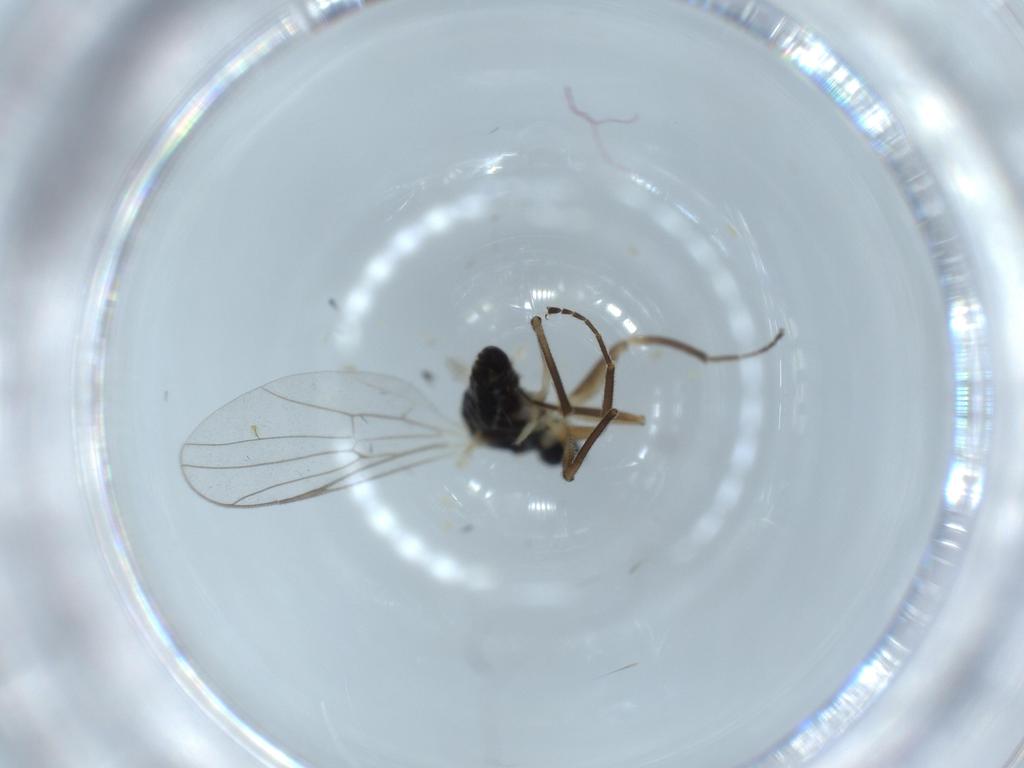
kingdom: Animalia
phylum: Arthropoda
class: Insecta
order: Diptera
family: Hybotidae
